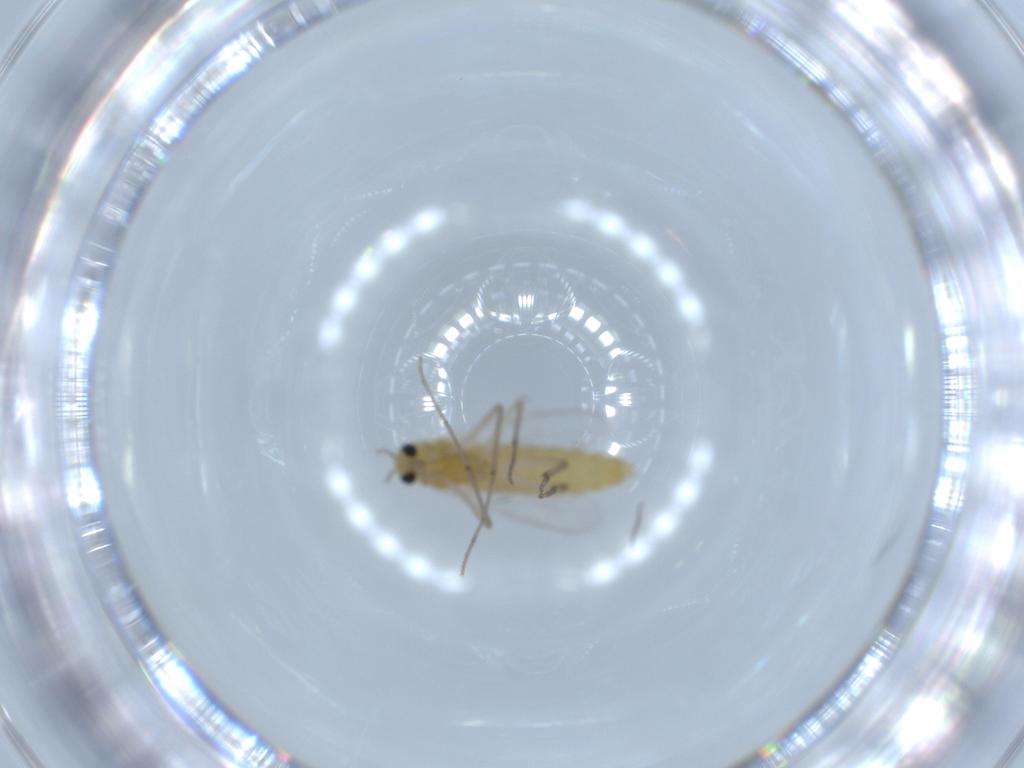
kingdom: Animalia
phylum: Arthropoda
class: Insecta
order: Diptera
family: Chironomidae
